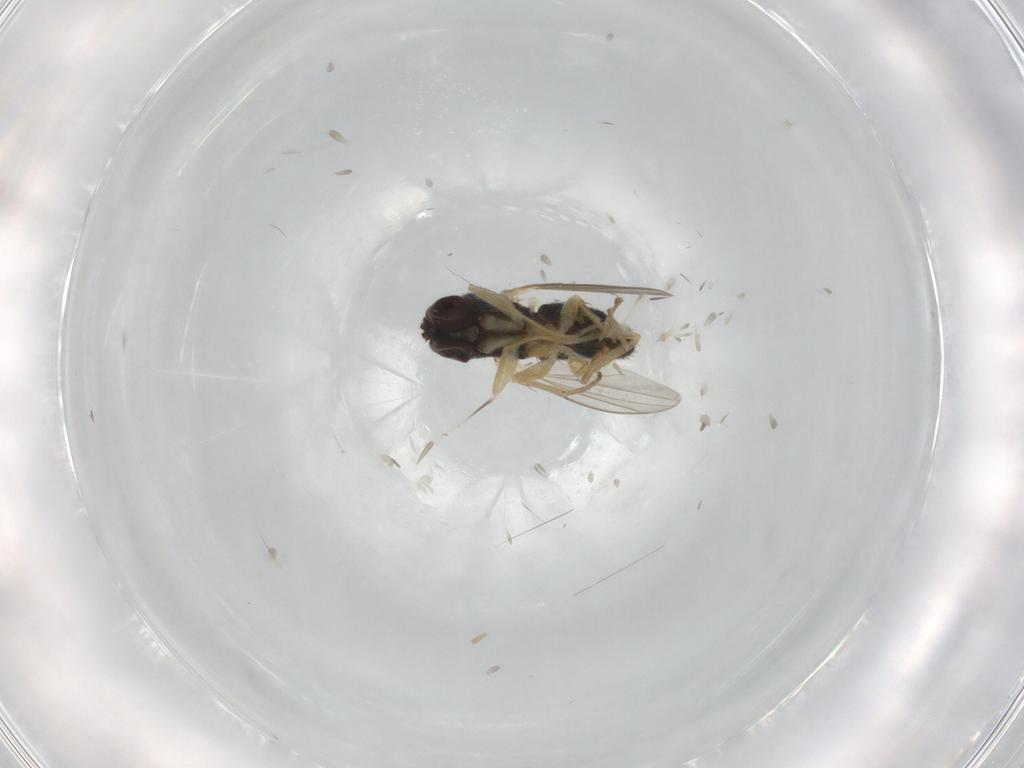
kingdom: Animalia
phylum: Arthropoda
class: Insecta
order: Diptera
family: Dolichopodidae
